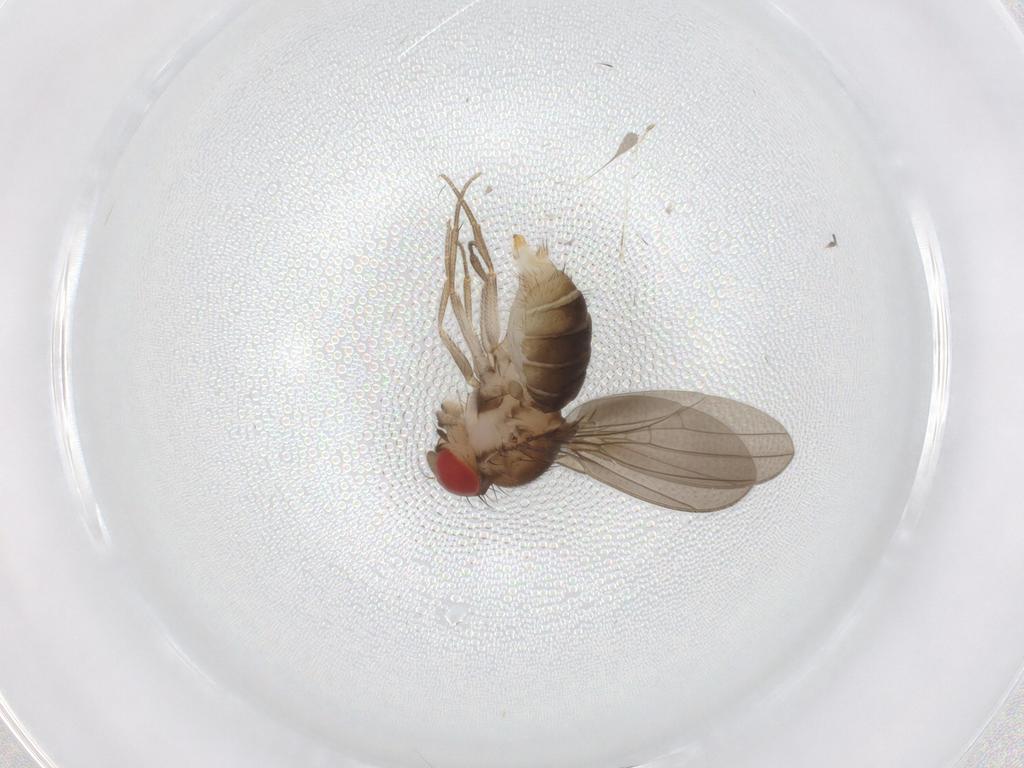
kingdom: Animalia
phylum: Arthropoda
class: Insecta
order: Diptera
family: Drosophilidae
